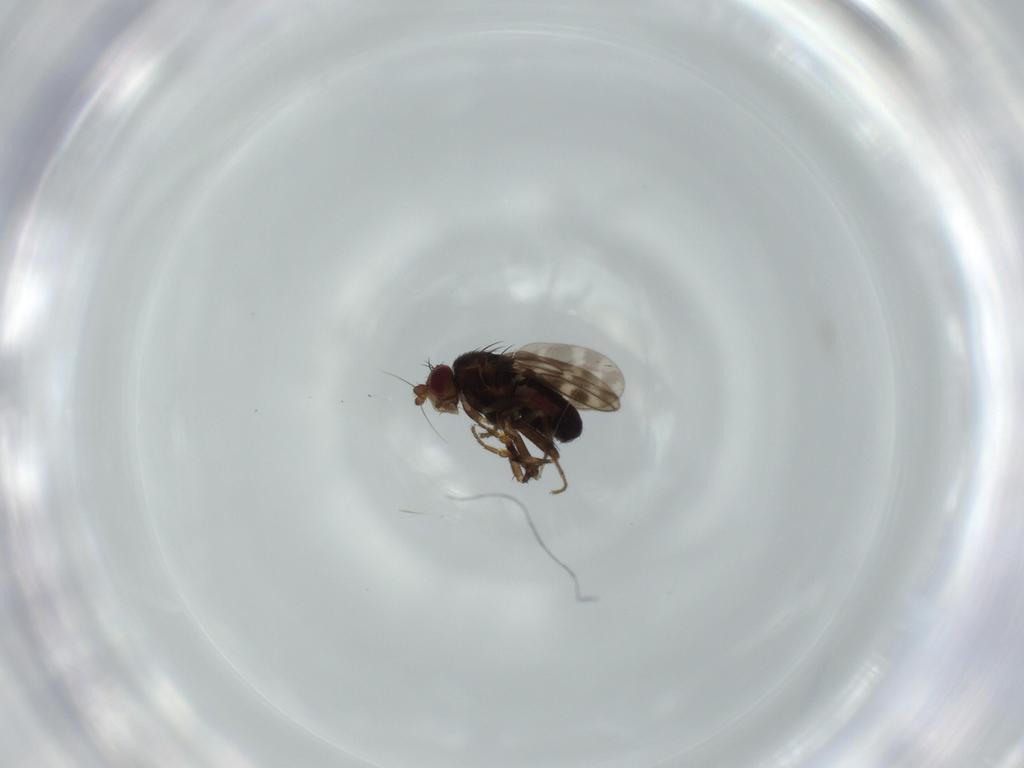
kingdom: Animalia
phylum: Arthropoda
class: Insecta
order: Diptera
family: Sphaeroceridae
